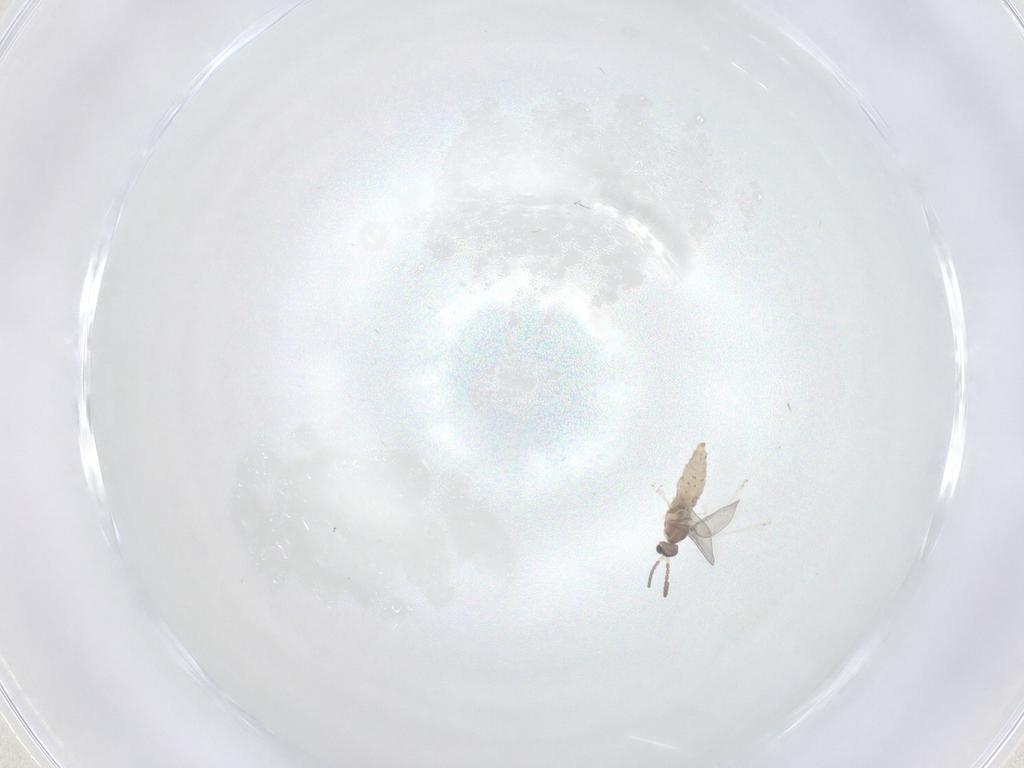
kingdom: Animalia
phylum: Arthropoda
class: Insecta
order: Diptera
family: Cecidomyiidae
